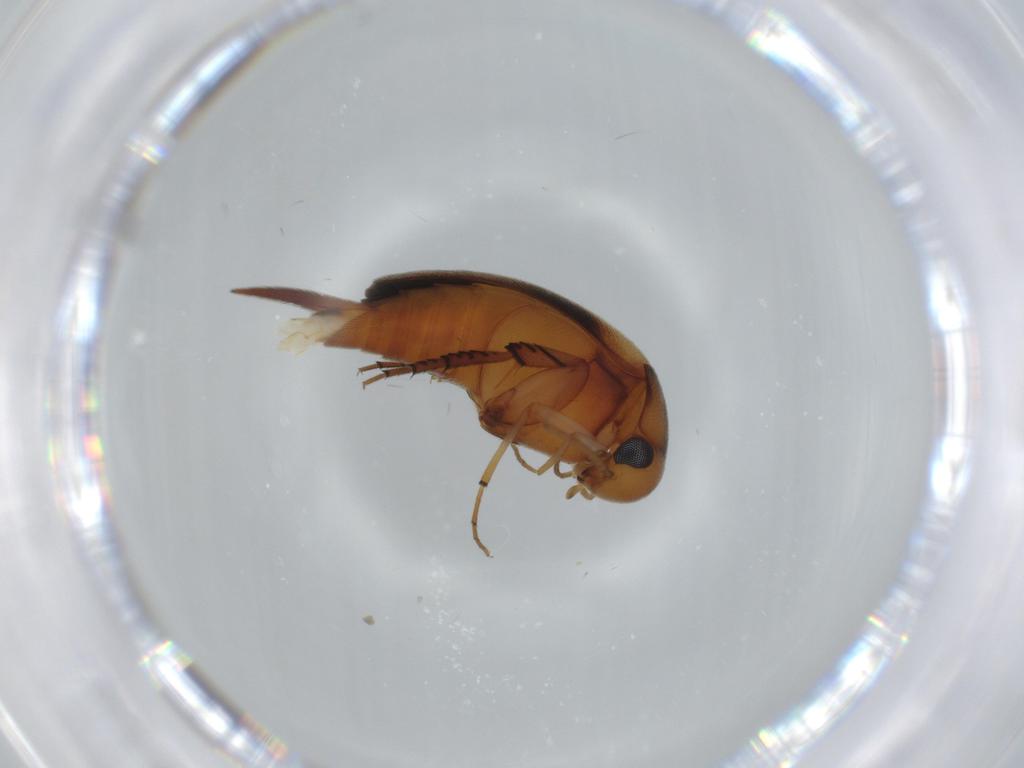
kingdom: Animalia
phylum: Arthropoda
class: Insecta
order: Coleoptera
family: Mordellidae
